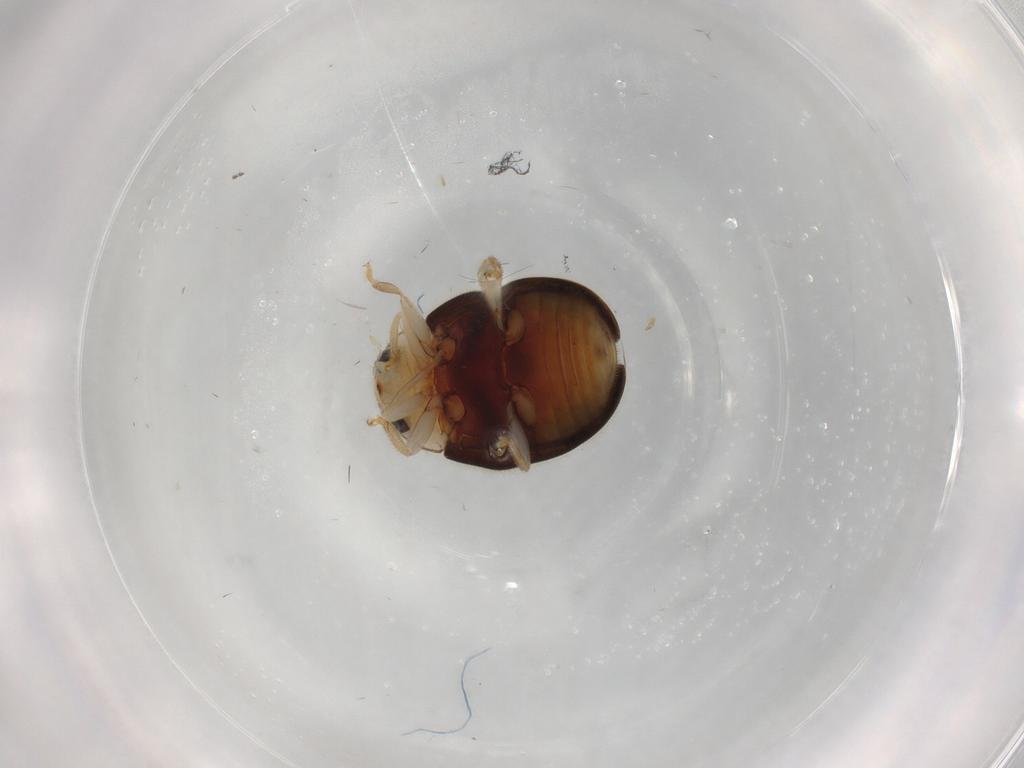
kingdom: Animalia
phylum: Arthropoda
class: Insecta
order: Coleoptera
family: Coccinellidae
